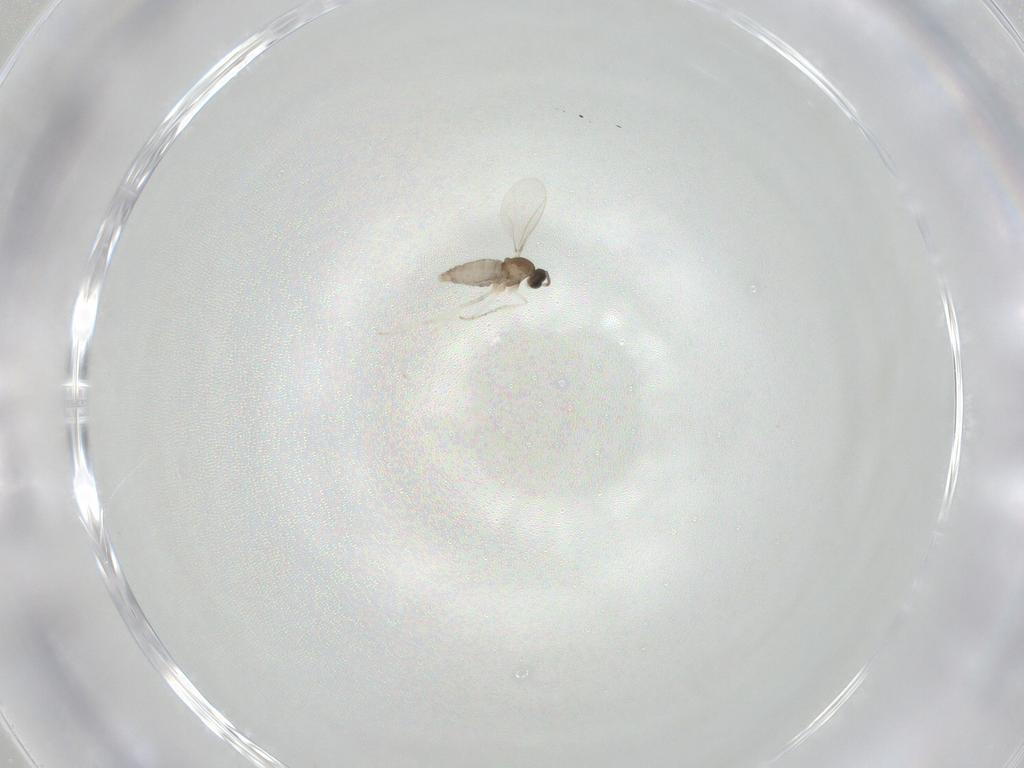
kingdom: Animalia
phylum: Arthropoda
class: Insecta
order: Diptera
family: Cecidomyiidae
